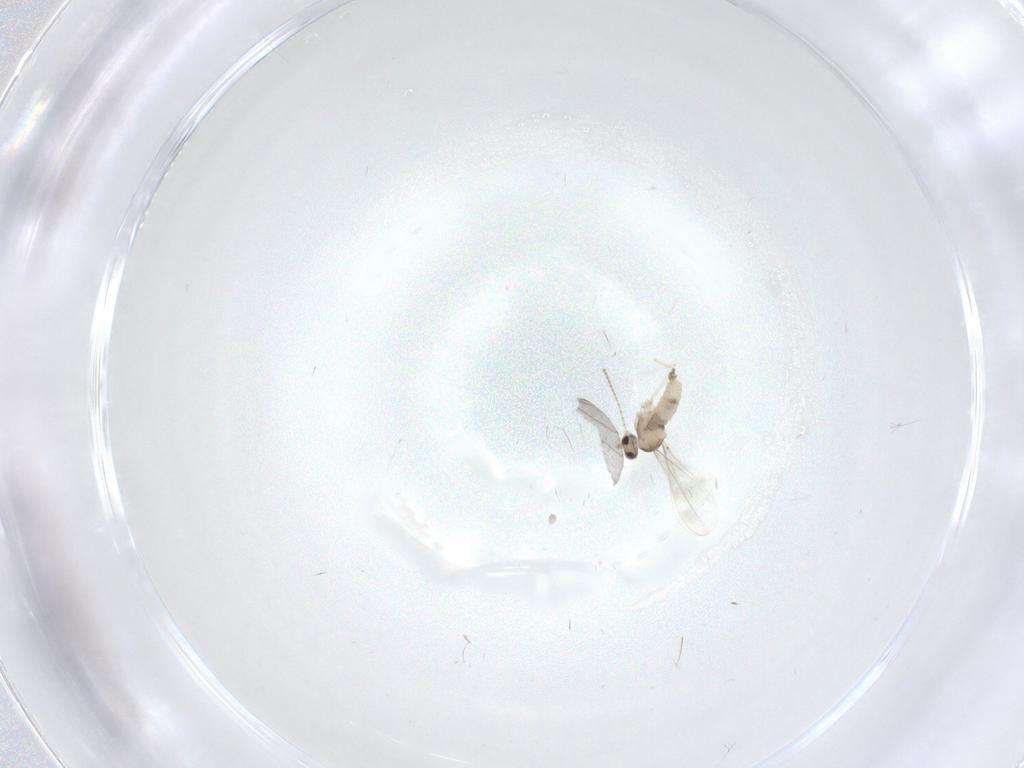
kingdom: Animalia
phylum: Arthropoda
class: Insecta
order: Diptera
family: Ceratopogonidae
